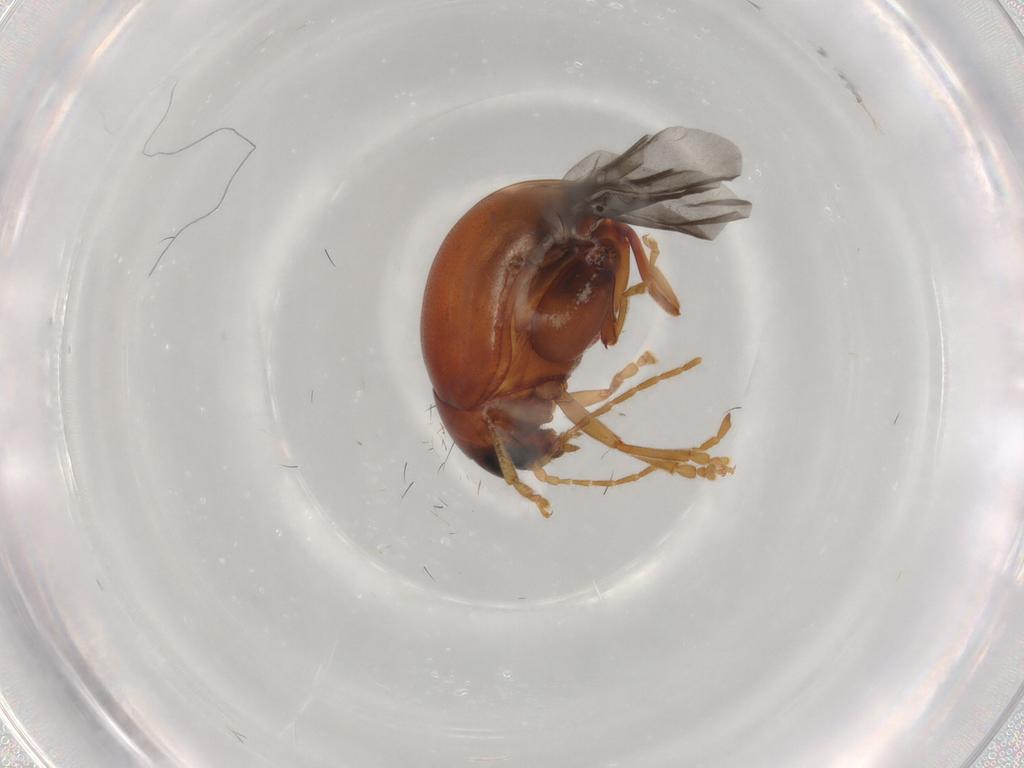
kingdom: Animalia
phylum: Arthropoda
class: Insecta
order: Coleoptera
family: Chrysomelidae
